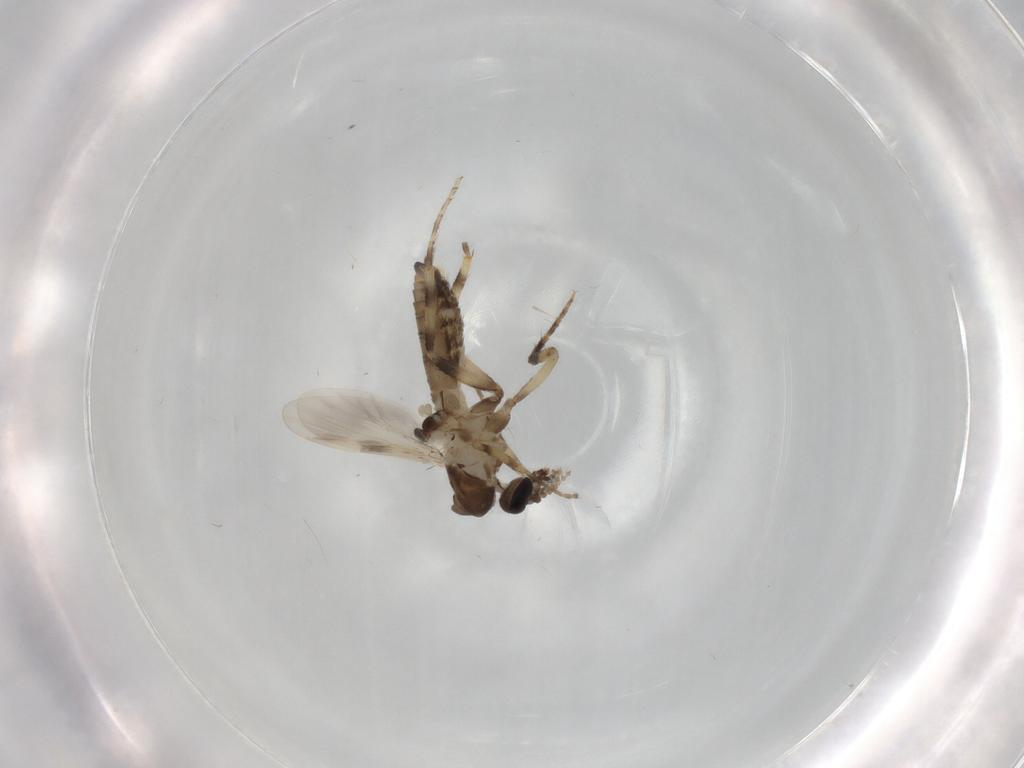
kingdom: Animalia
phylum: Arthropoda
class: Insecta
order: Diptera
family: Ceratopogonidae
